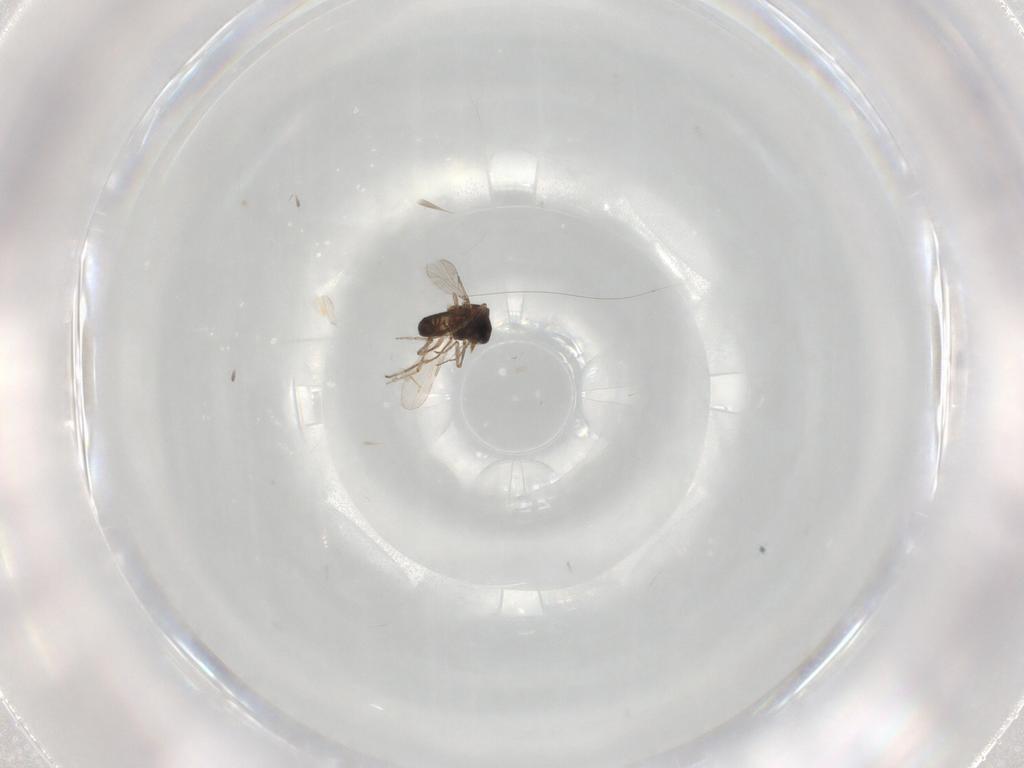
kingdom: Animalia
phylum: Arthropoda
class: Insecta
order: Diptera
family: Ceratopogonidae
